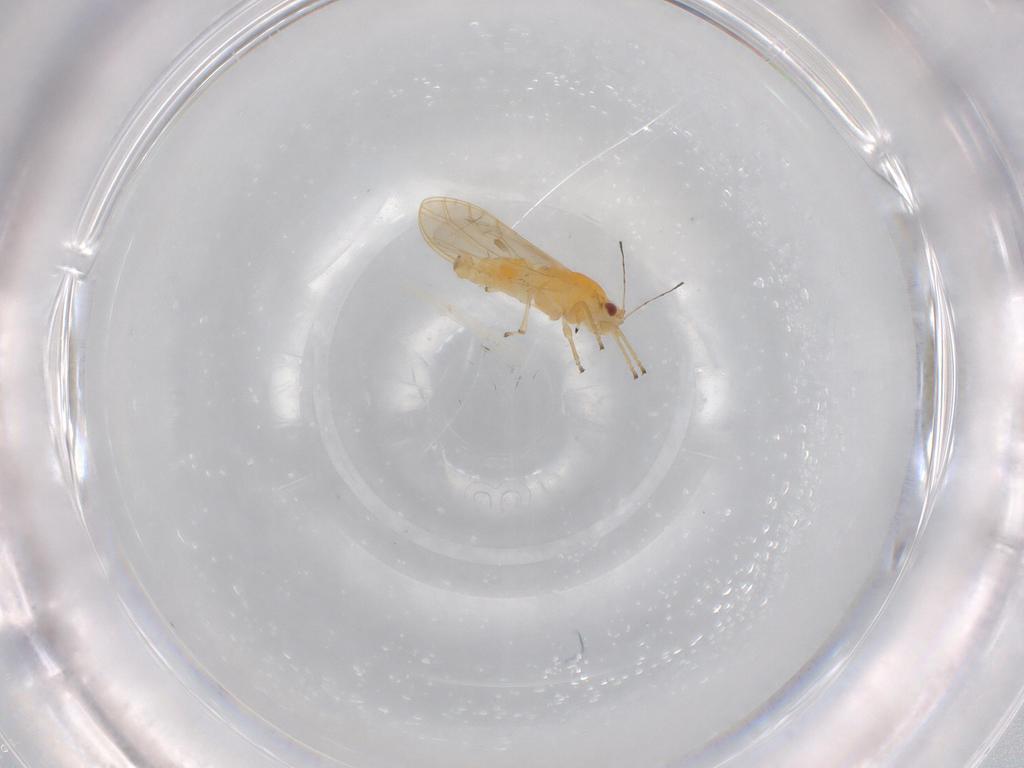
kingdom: Animalia
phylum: Arthropoda
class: Insecta
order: Hemiptera
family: Triozidae
